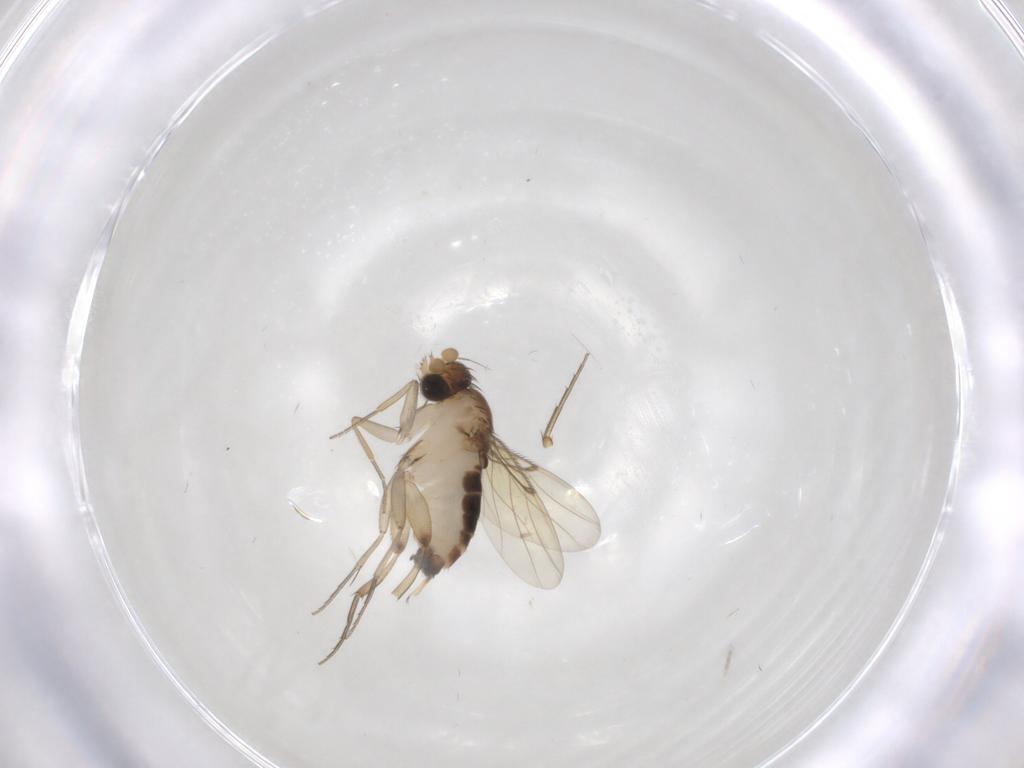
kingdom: Animalia
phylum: Arthropoda
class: Insecta
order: Diptera
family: Phoridae
